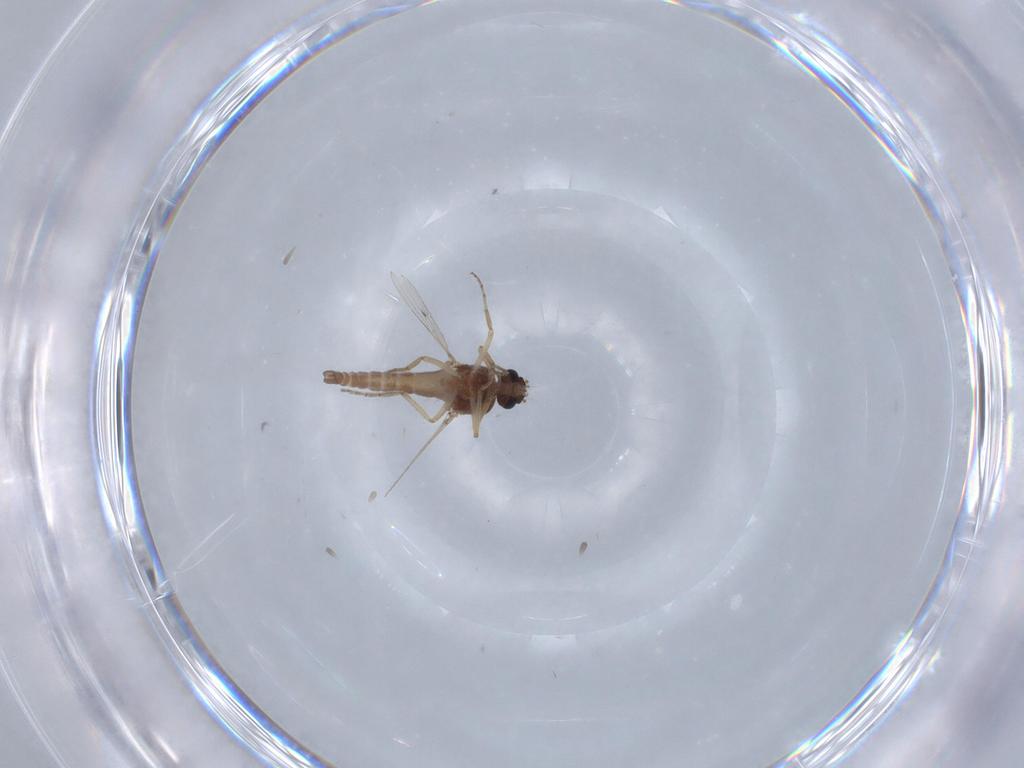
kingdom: Animalia
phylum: Arthropoda
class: Insecta
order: Diptera
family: Ceratopogonidae
